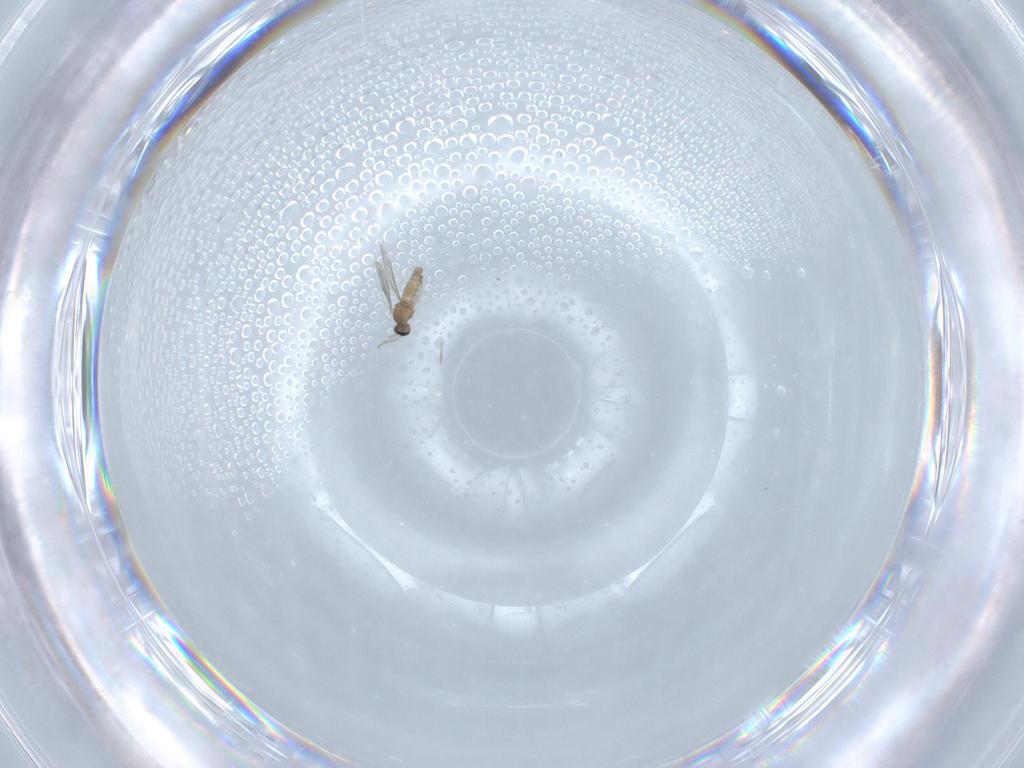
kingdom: Animalia
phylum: Arthropoda
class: Insecta
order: Diptera
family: Cecidomyiidae
